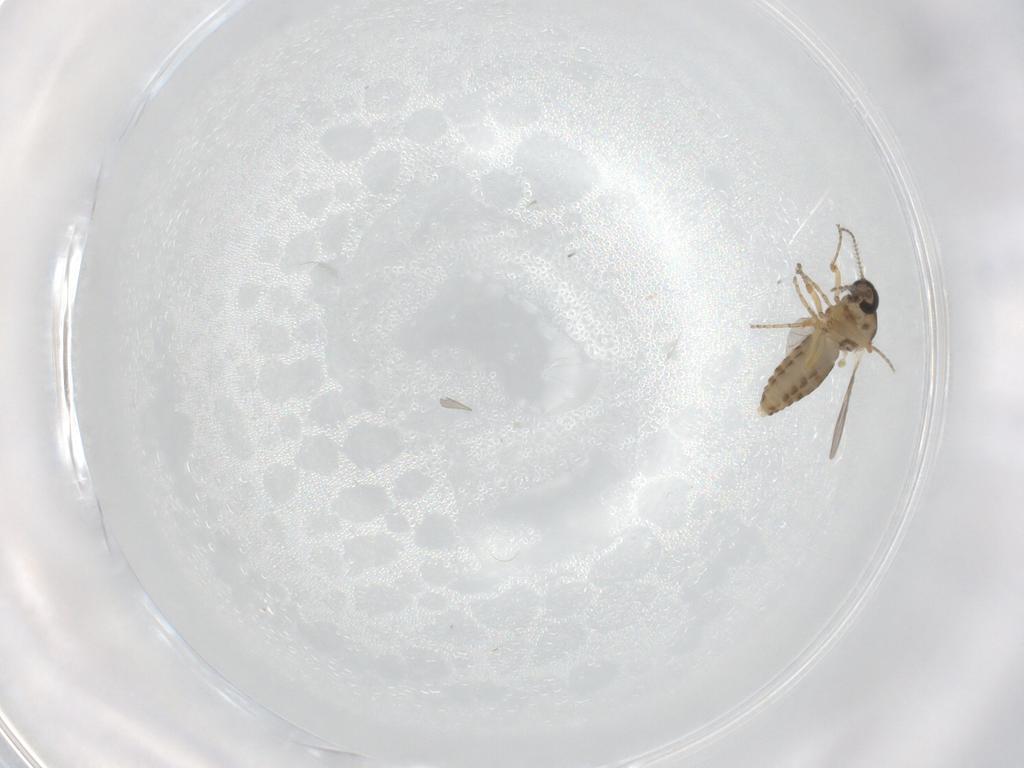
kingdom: Animalia
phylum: Arthropoda
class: Insecta
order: Diptera
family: Ceratopogonidae
